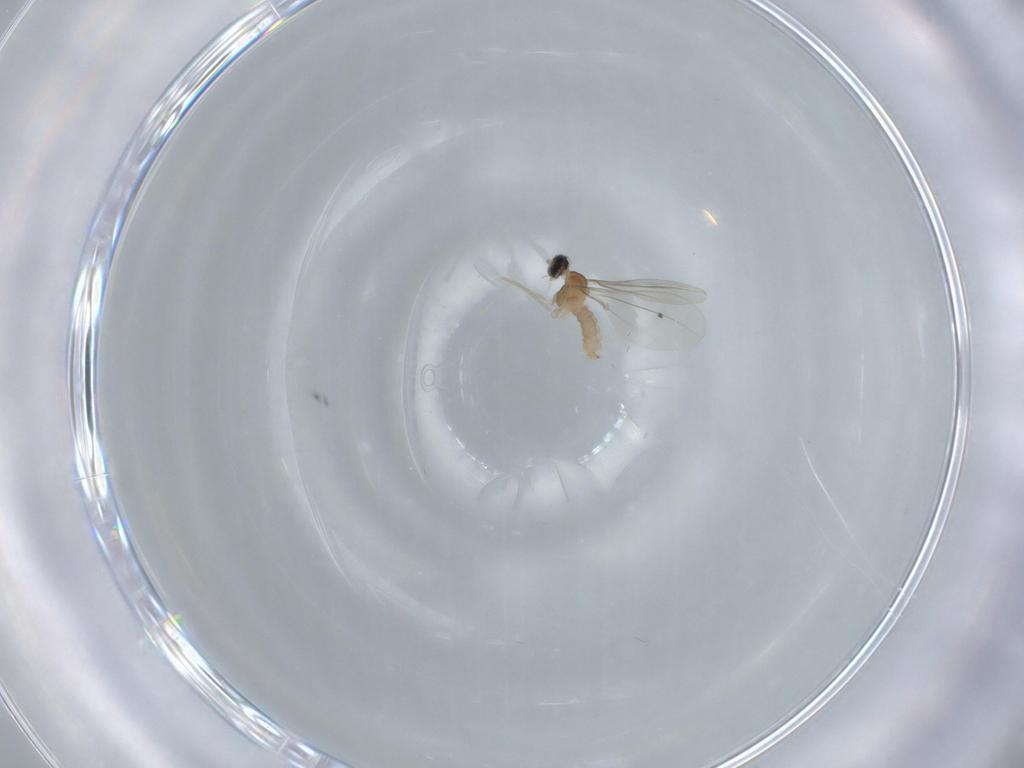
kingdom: Animalia
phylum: Arthropoda
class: Insecta
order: Diptera
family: Cecidomyiidae
